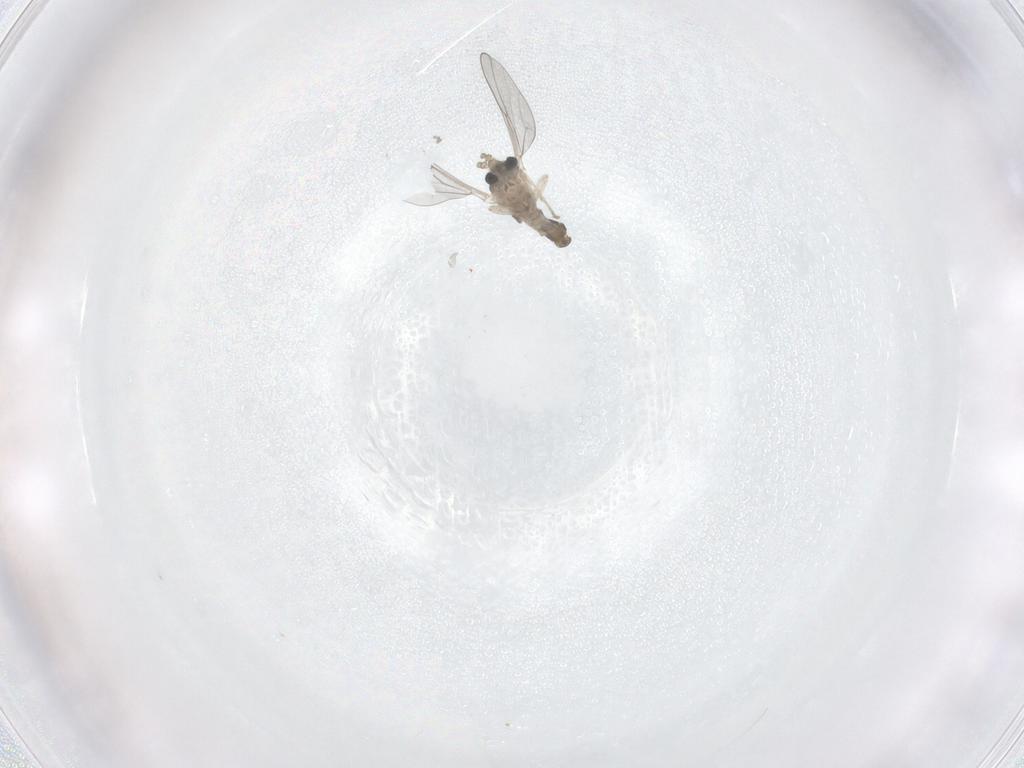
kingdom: Animalia
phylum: Arthropoda
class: Insecta
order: Diptera
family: Cecidomyiidae
